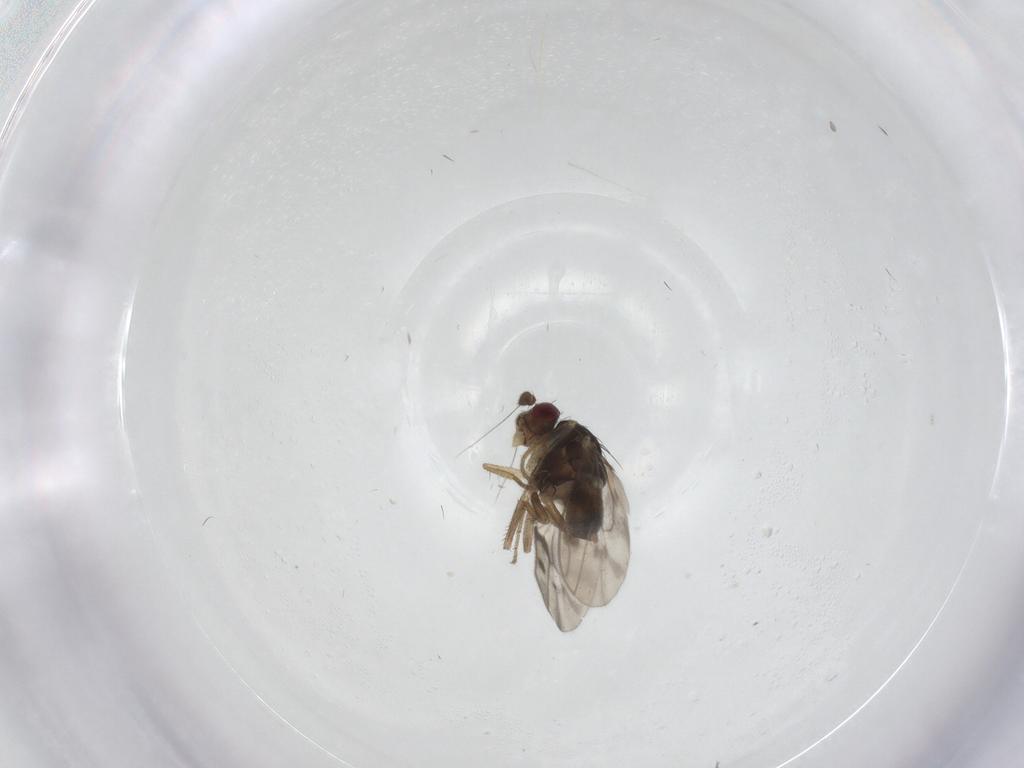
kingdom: Animalia
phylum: Arthropoda
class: Insecta
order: Diptera
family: Sphaeroceridae
